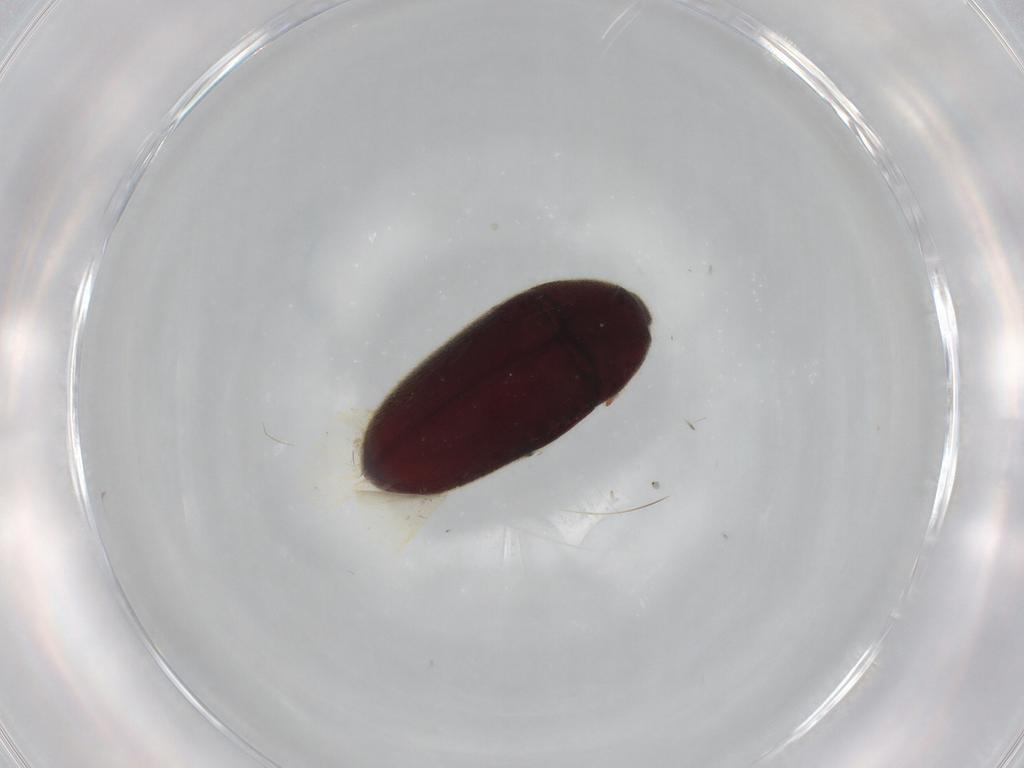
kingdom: Animalia
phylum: Arthropoda
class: Insecta
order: Coleoptera
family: Throscidae
